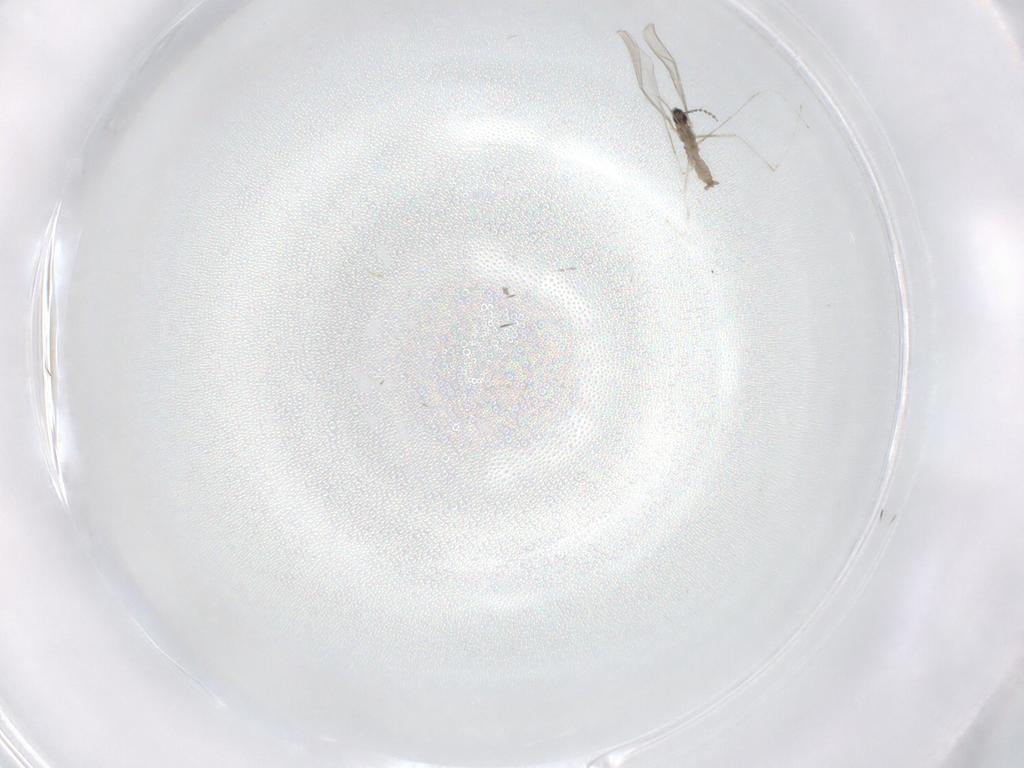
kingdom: Animalia
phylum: Arthropoda
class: Insecta
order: Diptera
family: Cecidomyiidae
